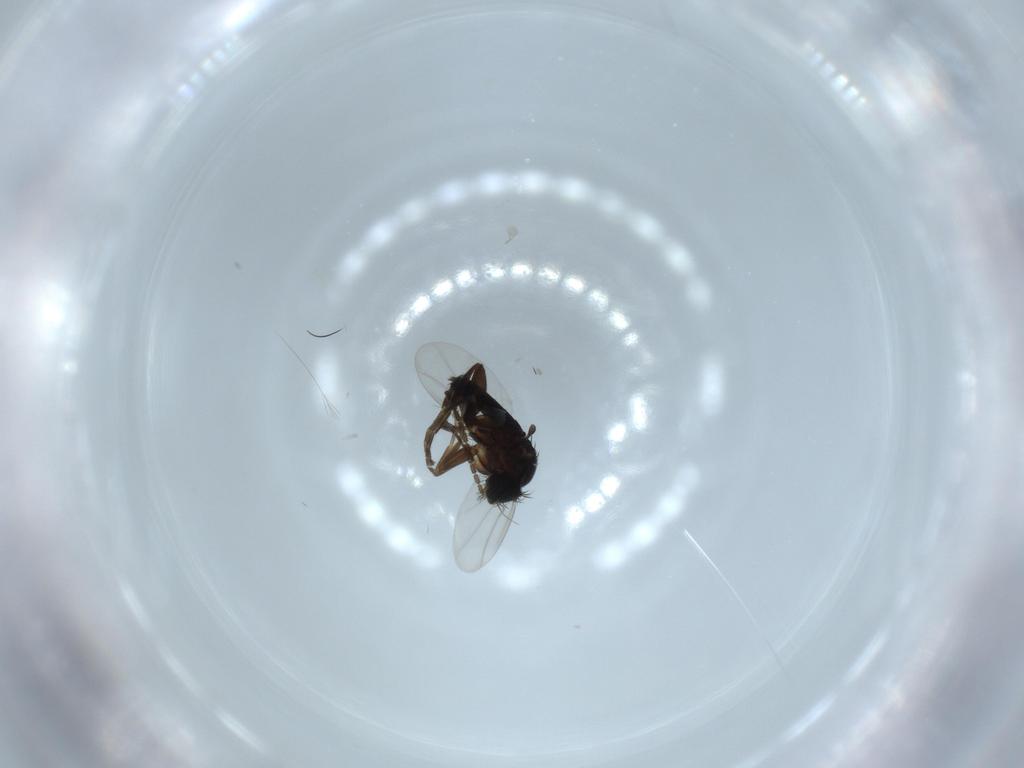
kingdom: Animalia
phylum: Arthropoda
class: Insecta
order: Diptera
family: Phoridae
